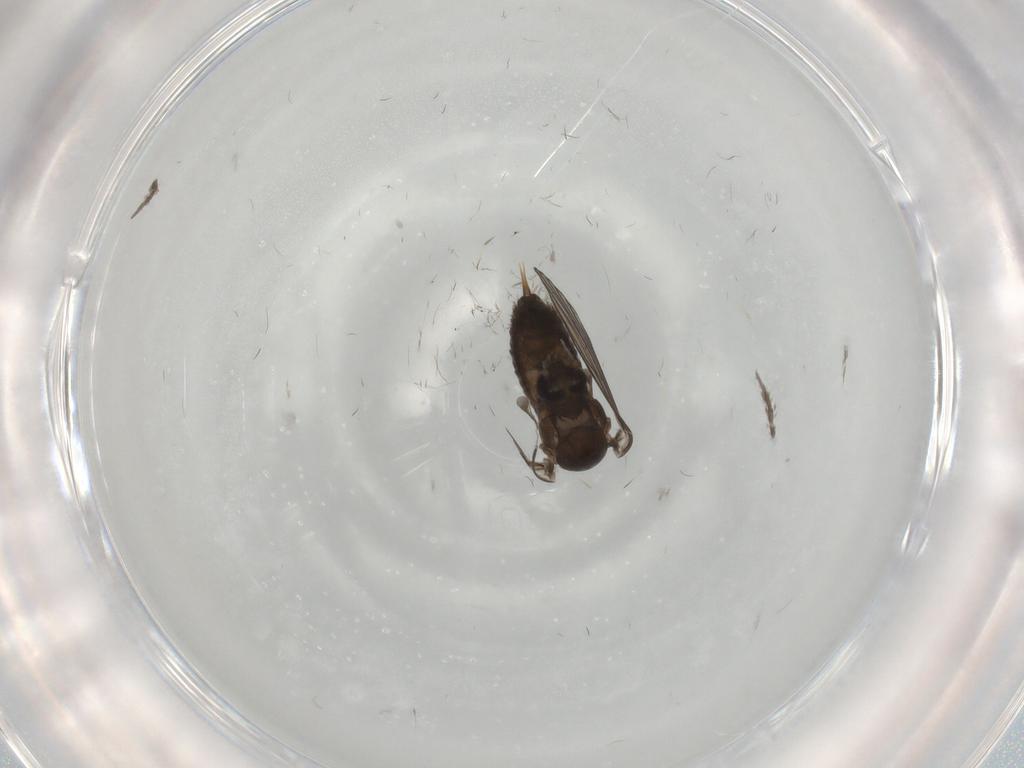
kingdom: Animalia
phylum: Arthropoda
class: Insecta
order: Diptera
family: Psychodidae
